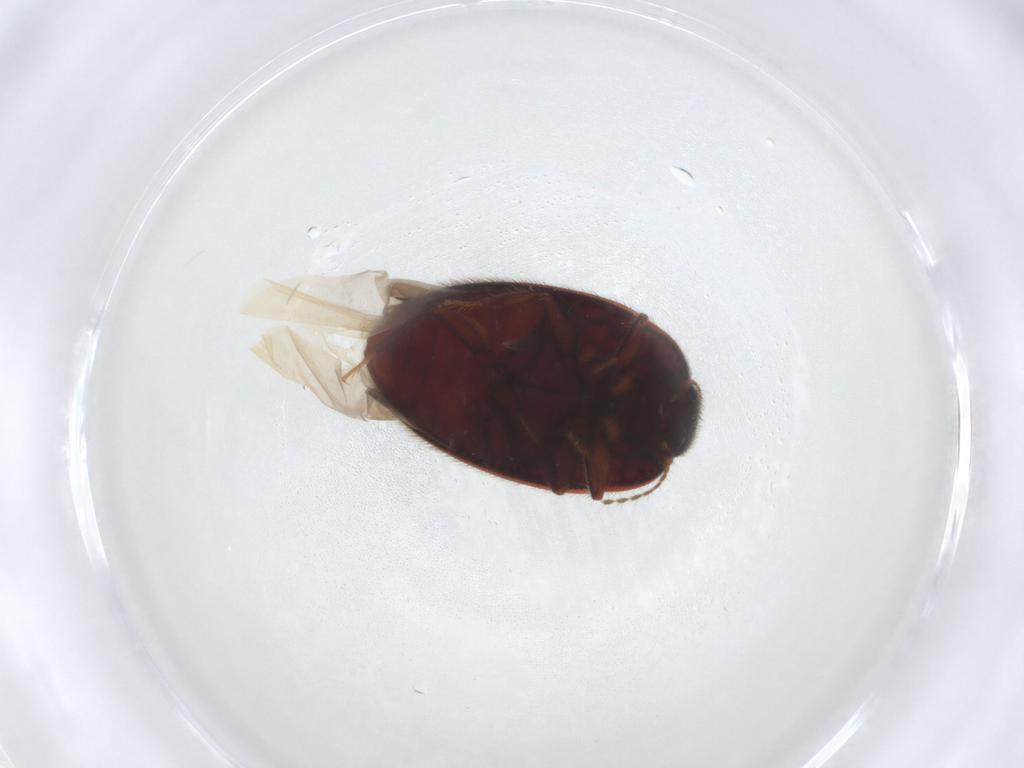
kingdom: Animalia
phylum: Arthropoda
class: Insecta
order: Coleoptera
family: Limnichidae
